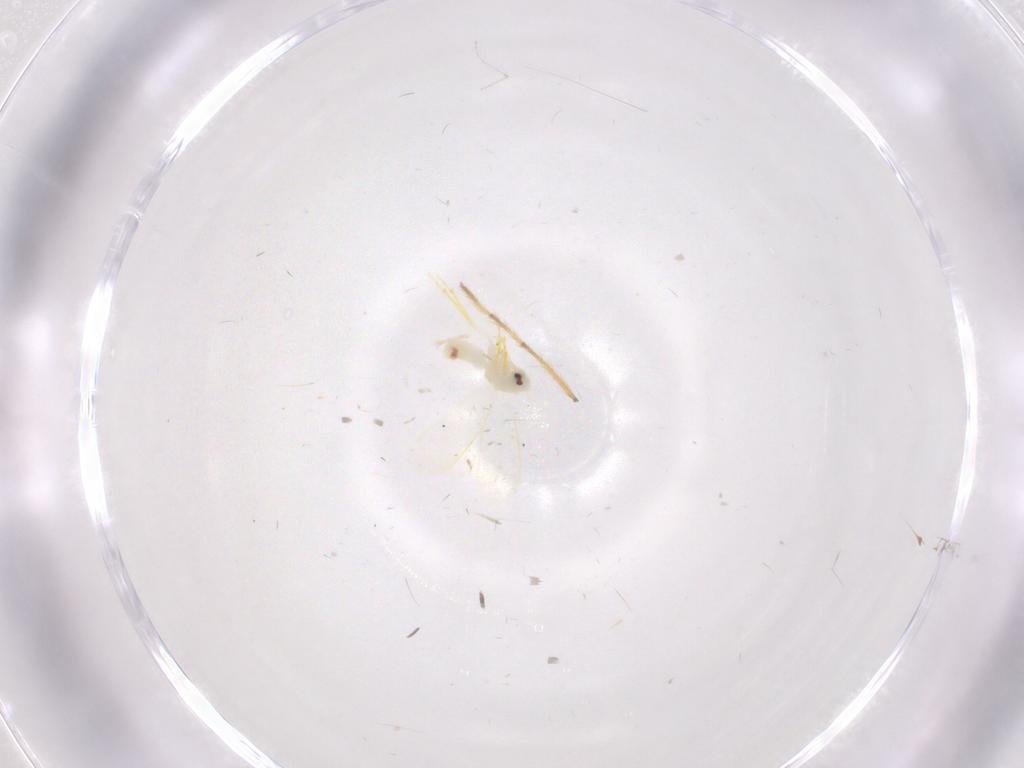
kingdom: Animalia
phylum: Arthropoda
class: Insecta
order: Hemiptera
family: Aleyrodidae
